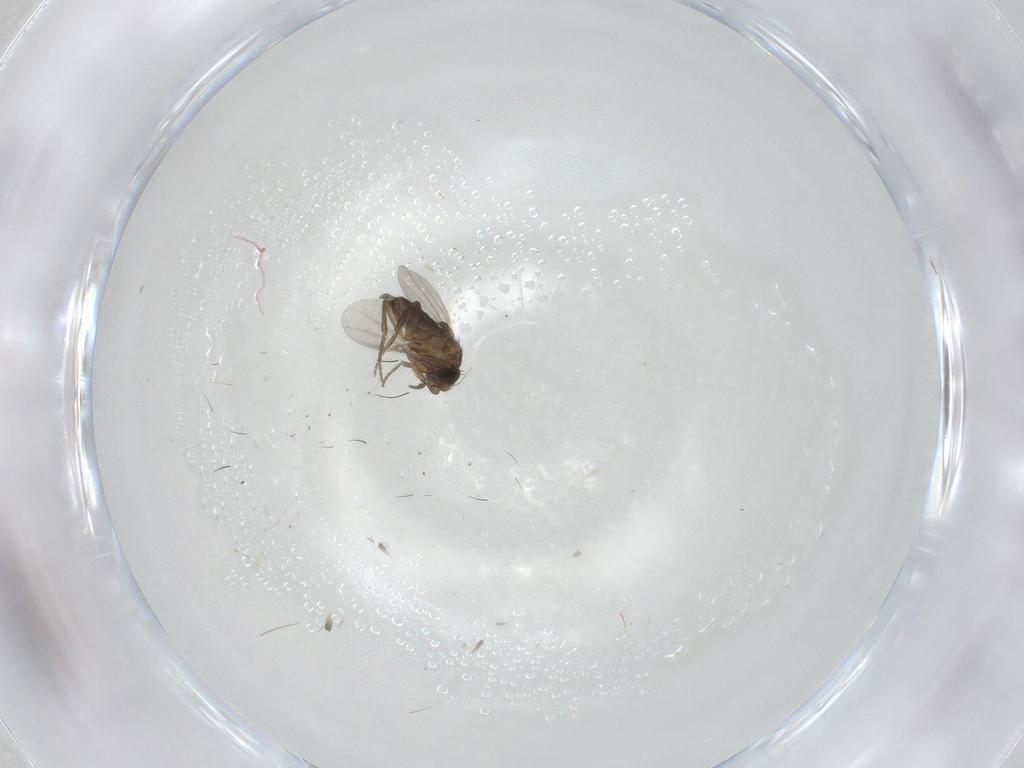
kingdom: Animalia
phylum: Arthropoda
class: Insecta
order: Diptera
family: Phoridae
